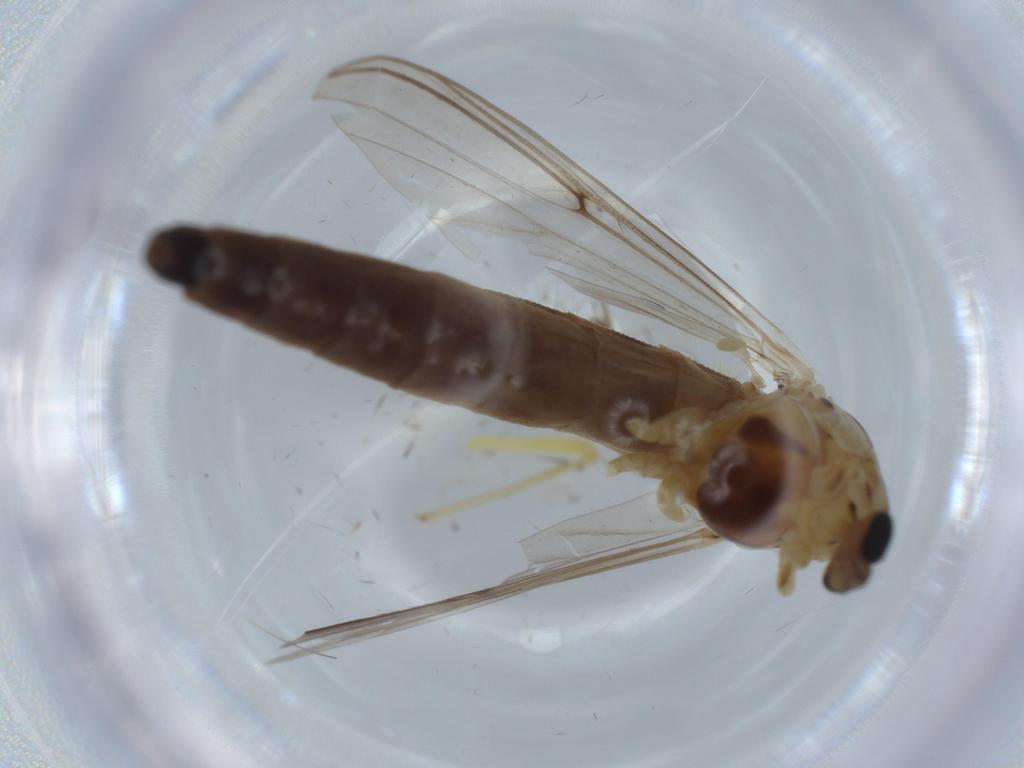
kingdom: Animalia
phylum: Arthropoda
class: Insecta
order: Diptera
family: Chironomidae
